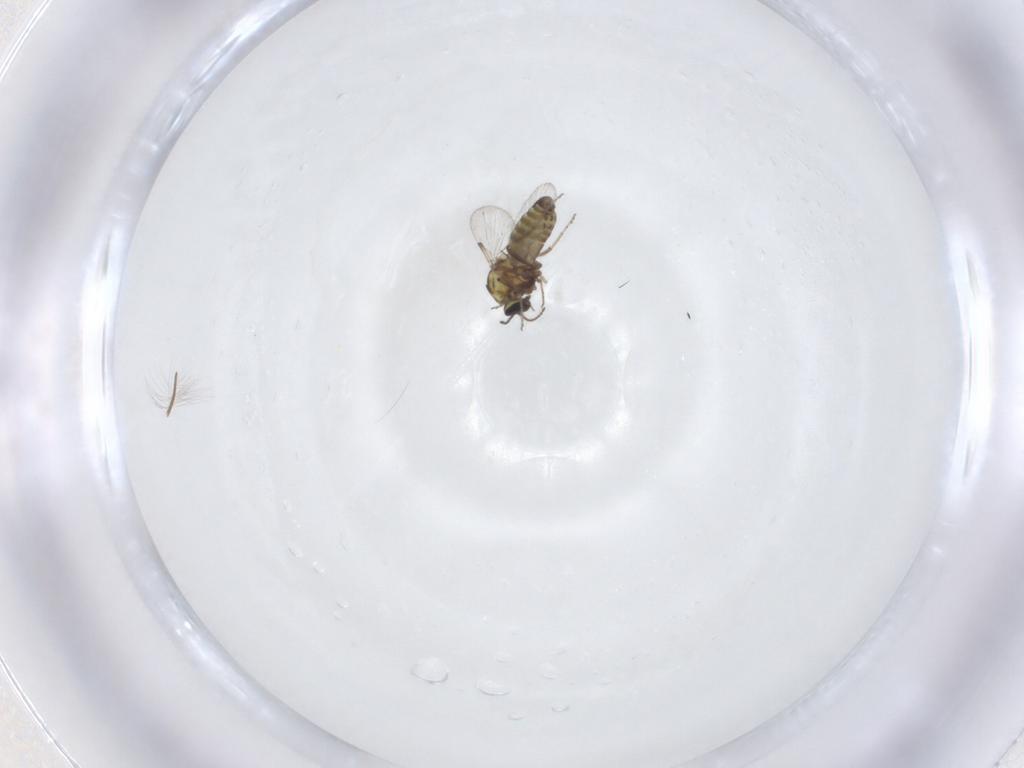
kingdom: Animalia
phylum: Arthropoda
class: Insecta
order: Diptera
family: Ceratopogonidae
